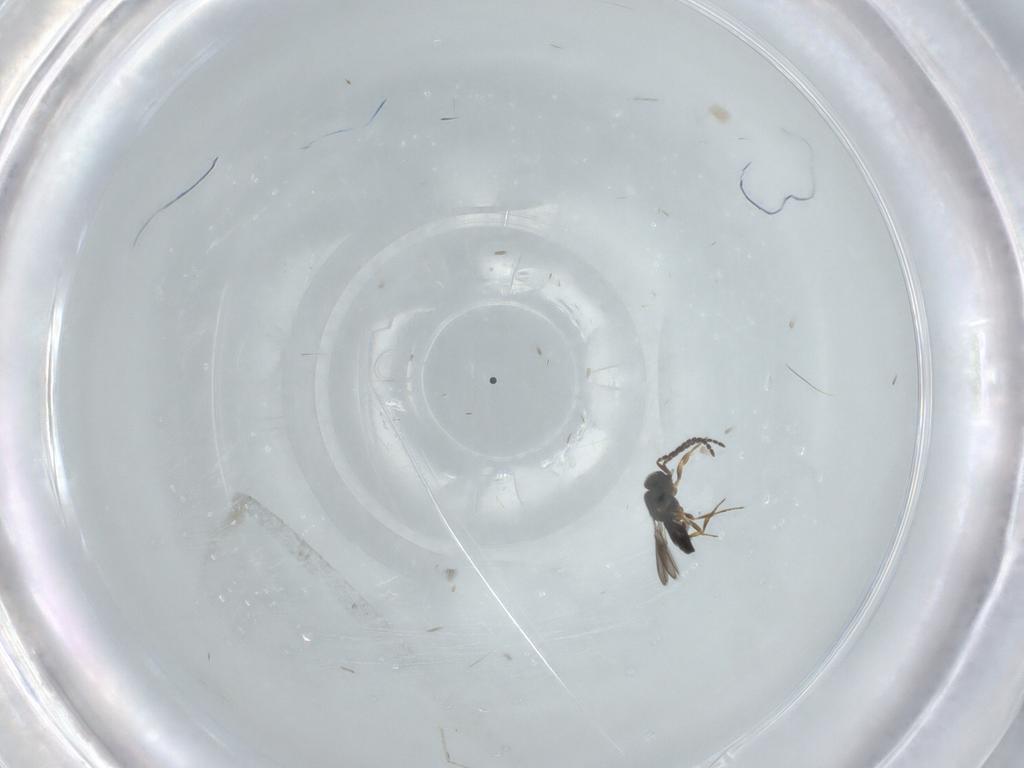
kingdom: Animalia
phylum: Arthropoda
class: Insecta
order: Hymenoptera
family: Scelionidae
